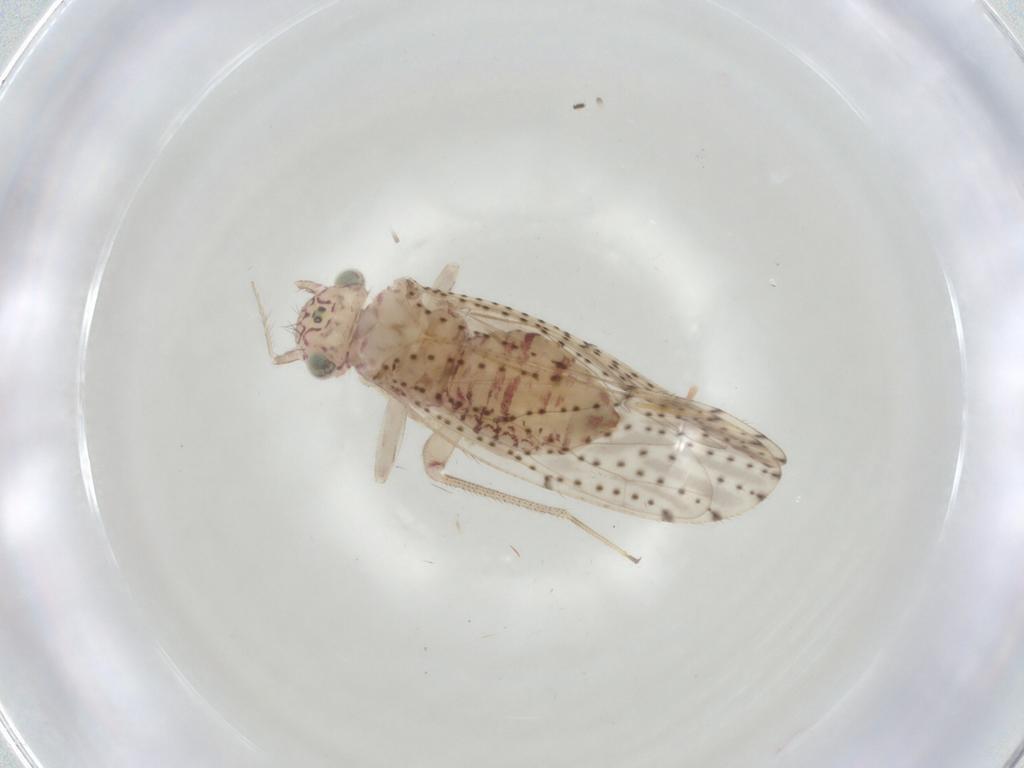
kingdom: Animalia
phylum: Arthropoda
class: Insecta
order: Psocodea
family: Philotarsidae
